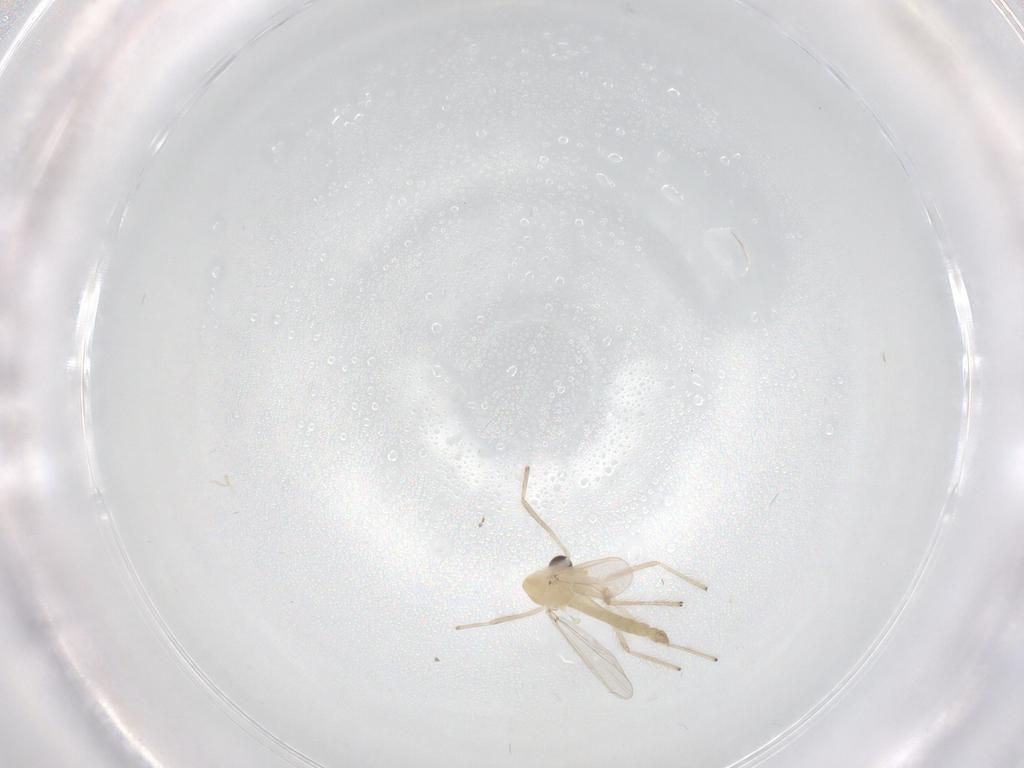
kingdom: Animalia
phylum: Arthropoda
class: Insecta
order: Diptera
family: Chironomidae
